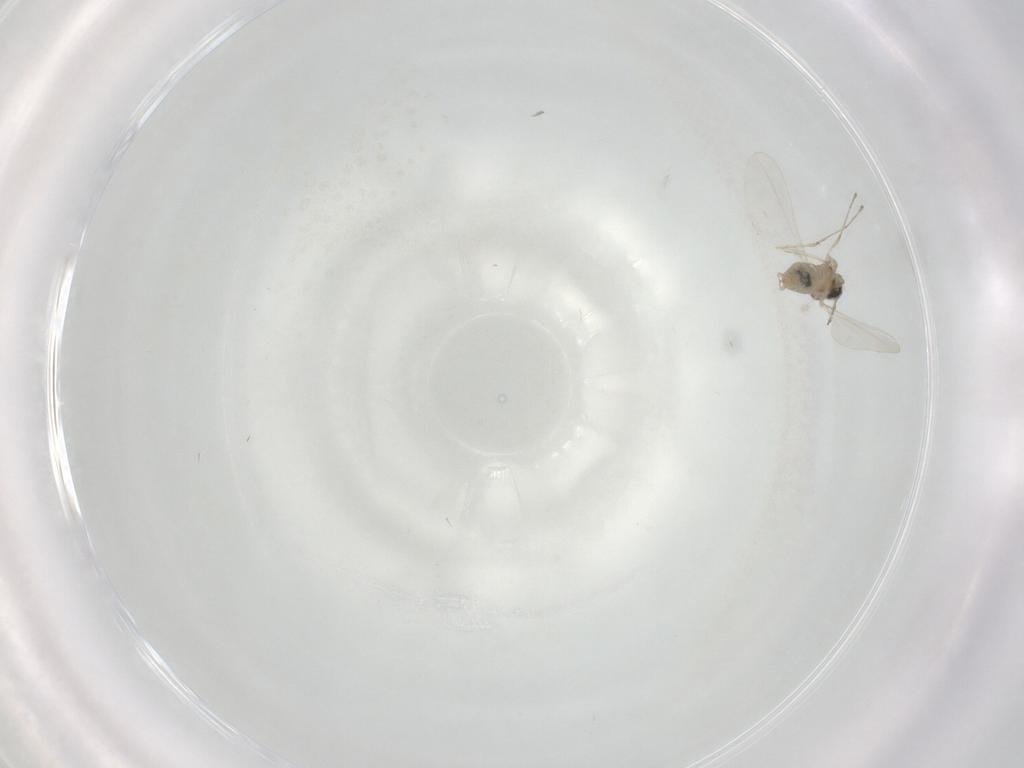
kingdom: Animalia
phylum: Arthropoda
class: Insecta
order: Diptera
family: Cecidomyiidae
